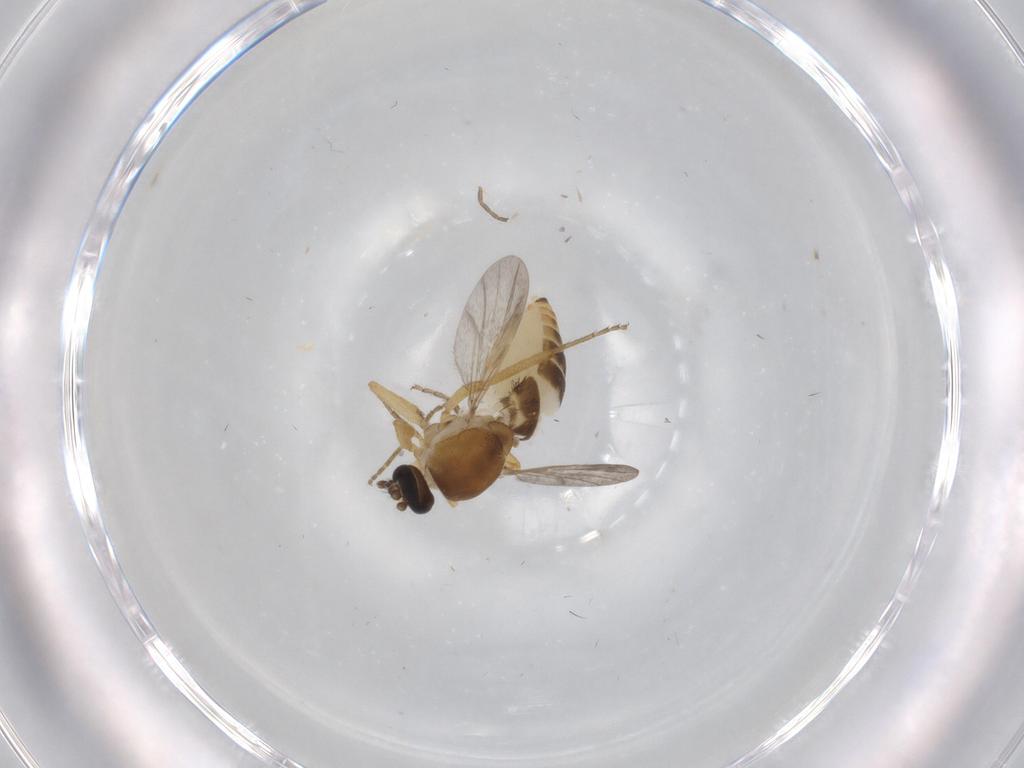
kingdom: Animalia
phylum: Arthropoda
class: Insecta
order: Diptera
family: Ceratopogonidae
